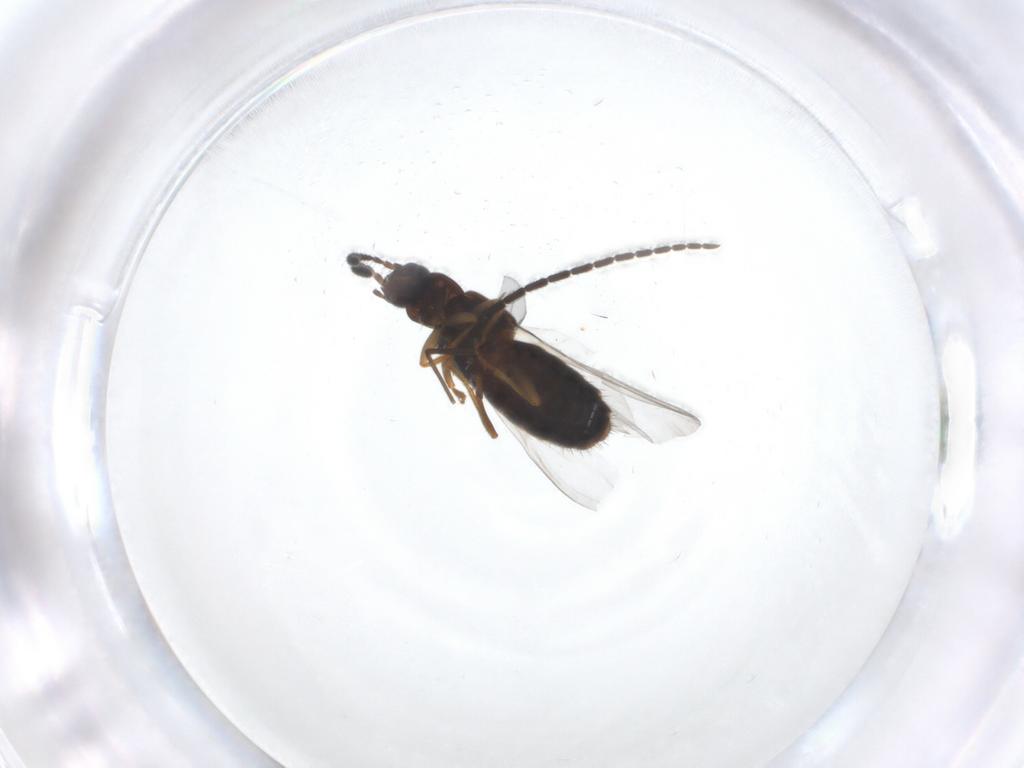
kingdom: Animalia
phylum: Arthropoda
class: Insecta
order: Diptera
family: Chironomidae
